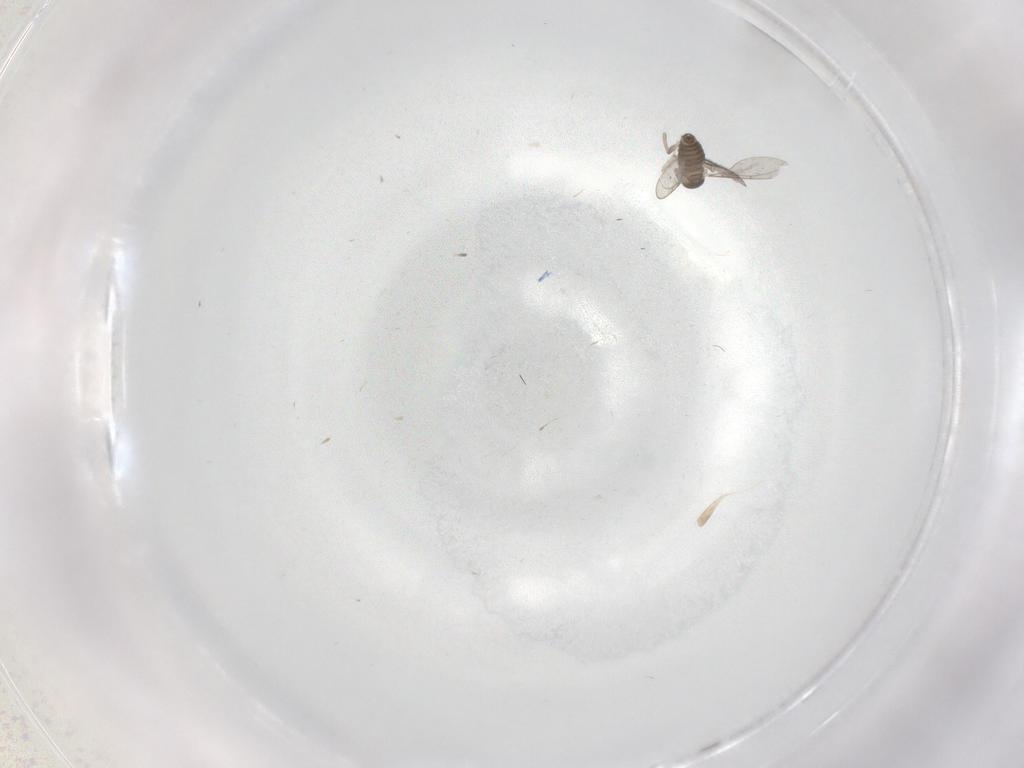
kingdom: Animalia
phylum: Arthropoda
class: Insecta
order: Diptera
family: Cecidomyiidae
